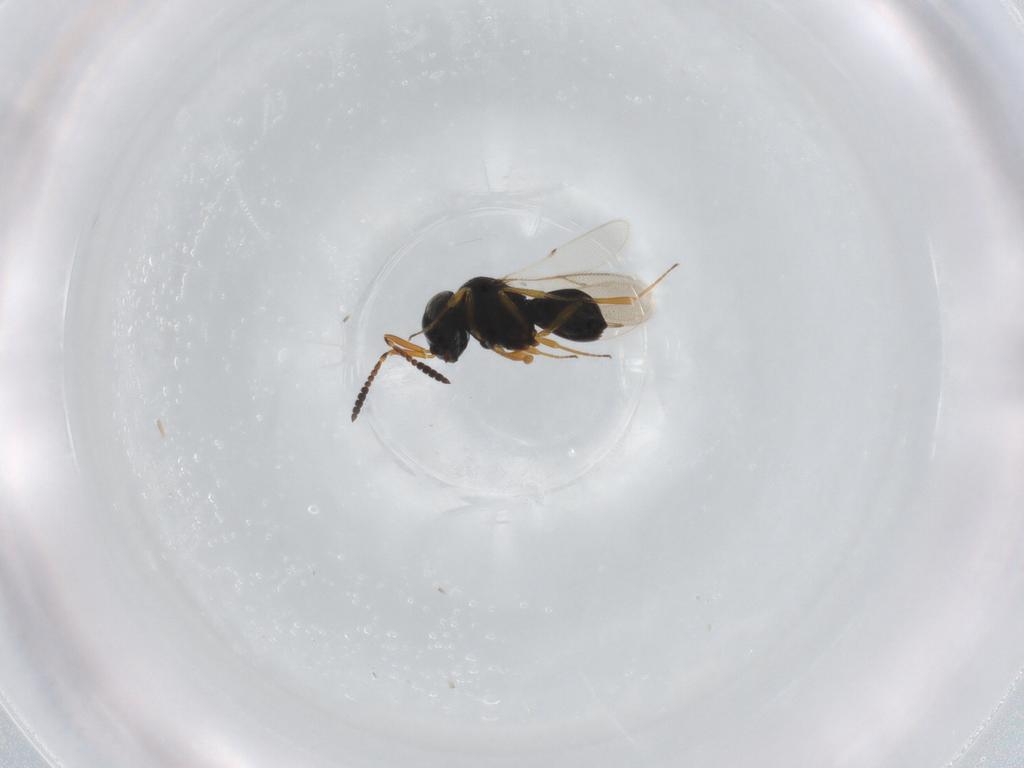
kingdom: Animalia
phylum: Arthropoda
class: Insecta
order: Hymenoptera
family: Scelionidae
